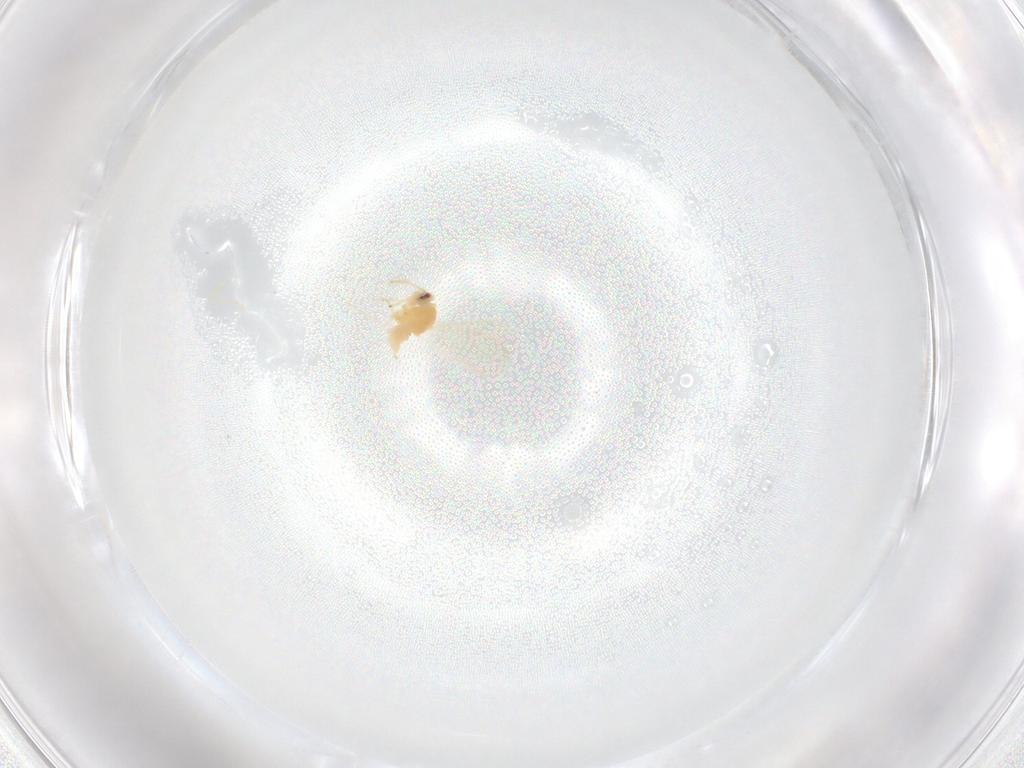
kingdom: Animalia
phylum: Arthropoda
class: Insecta
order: Hemiptera
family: Aleyrodidae
